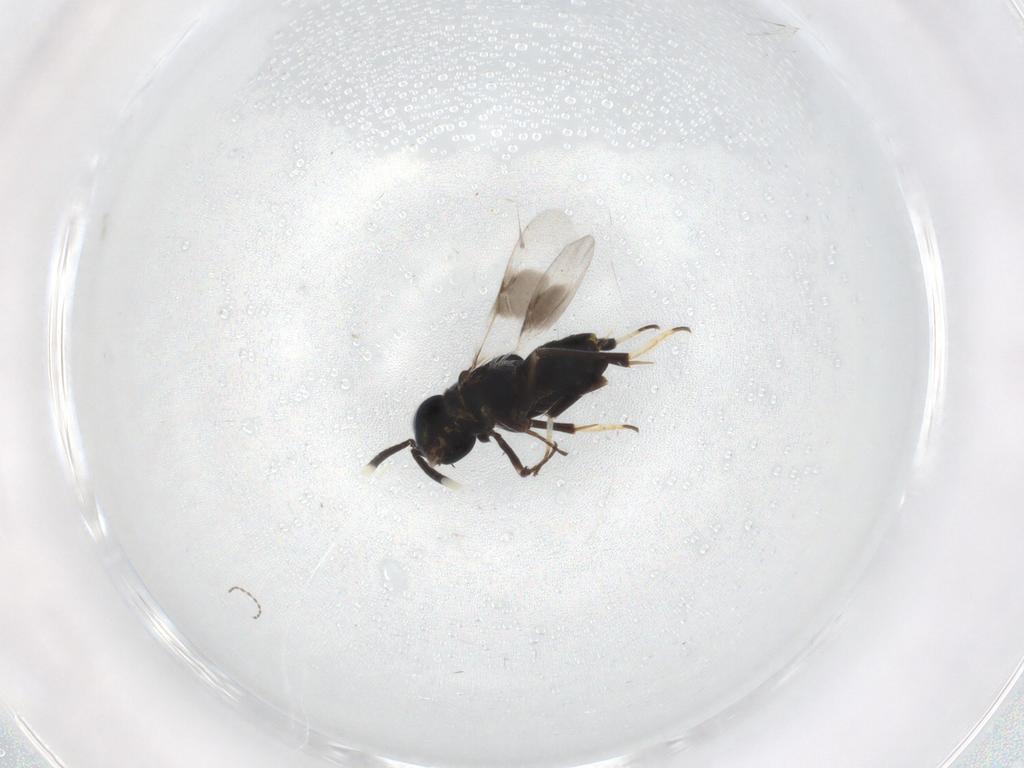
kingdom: Animalia
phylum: Arthropoda
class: Insecta
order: Hymenoptera
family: Encyrtidae
